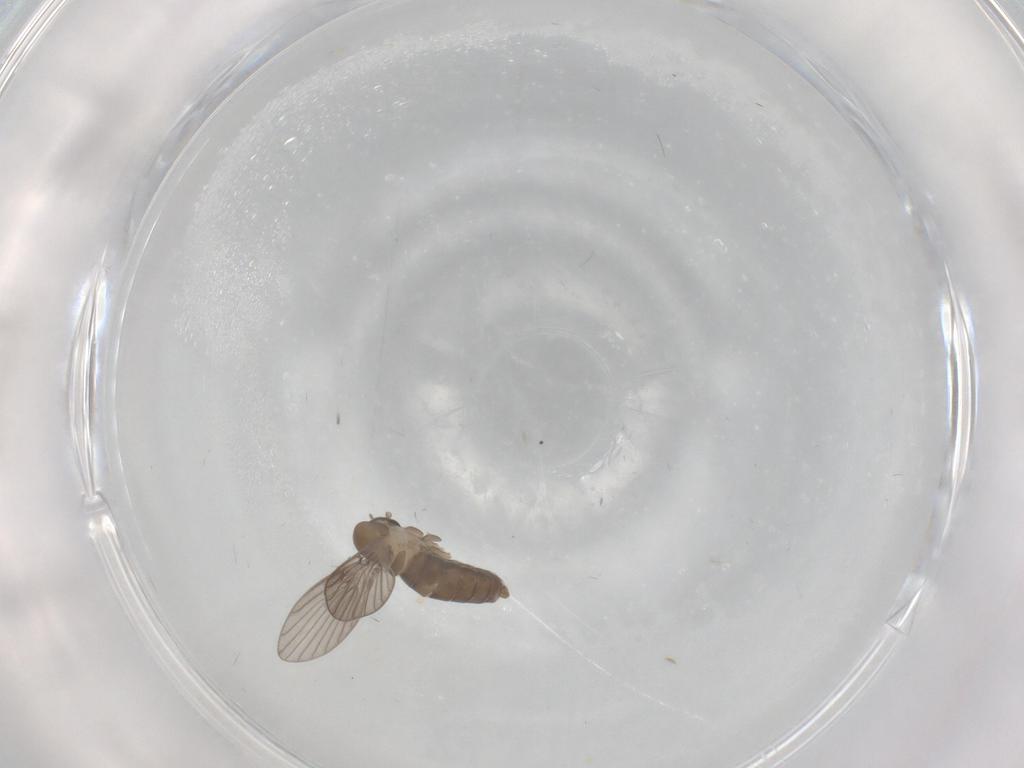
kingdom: Animalia
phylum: Arthropoda
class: Insecta
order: Diptera
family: Psychodidae
